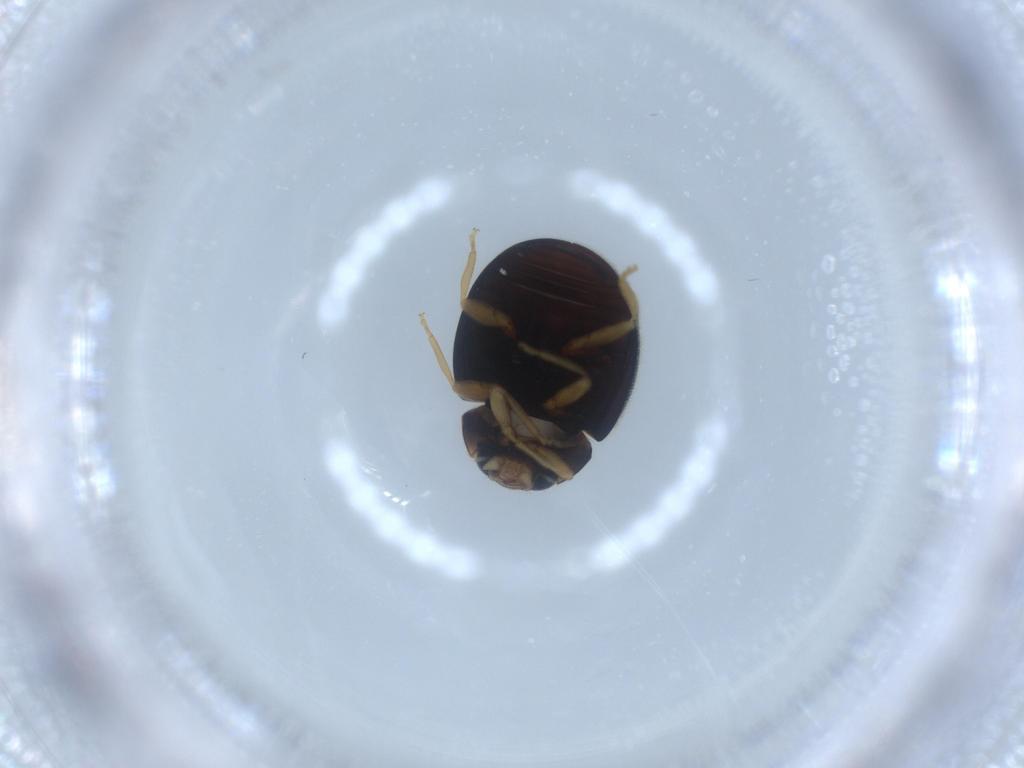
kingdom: Animalia
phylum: Arthropoda
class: Insecta
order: Coleoptera
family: Coccinellidae
